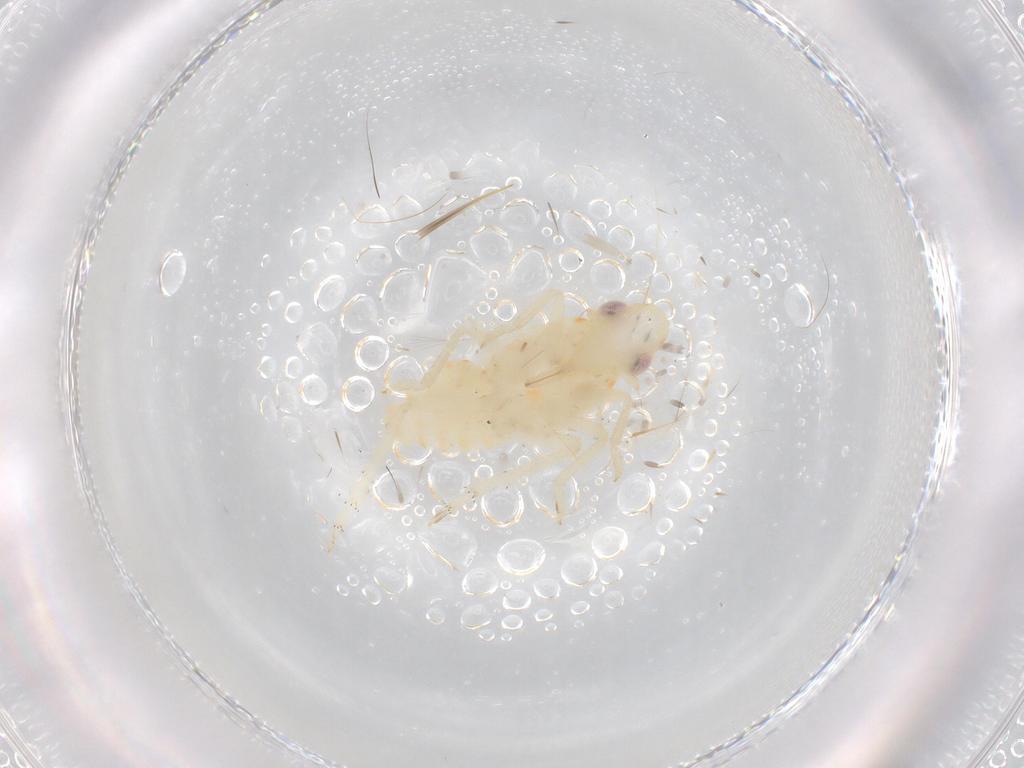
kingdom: Animalia
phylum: Arthropoda
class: Insecta
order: Hemiptera
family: Tropiduchidae
